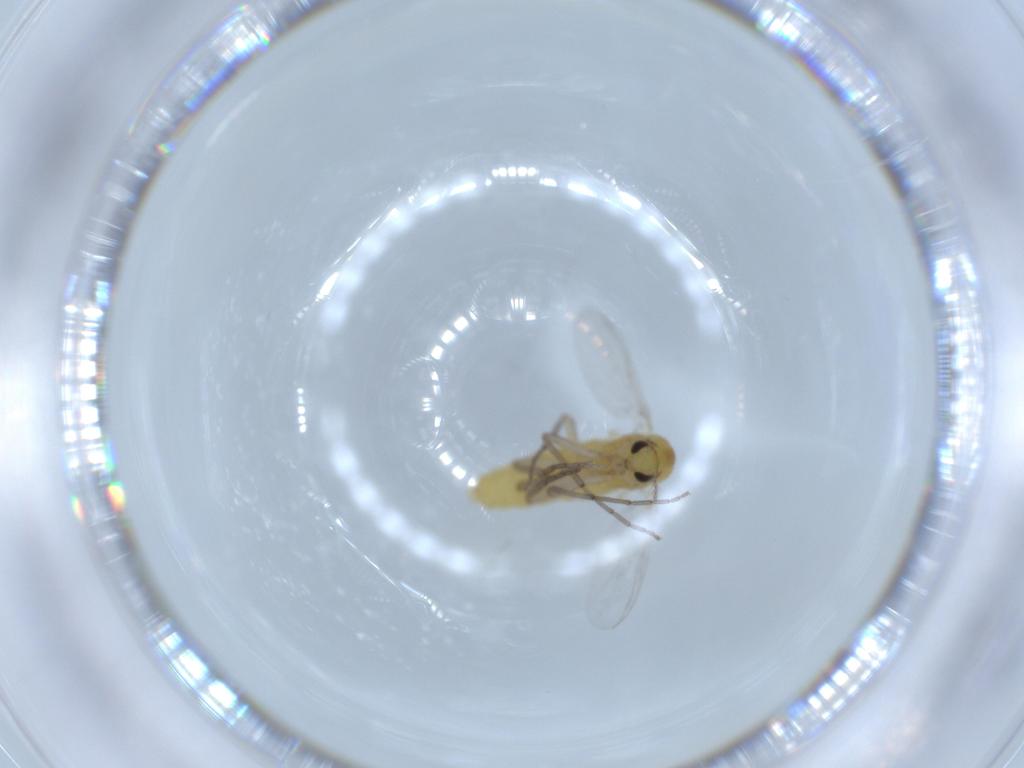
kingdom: Animalia
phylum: Arthropoda
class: Insecta
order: Diptera
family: Chironomidae
